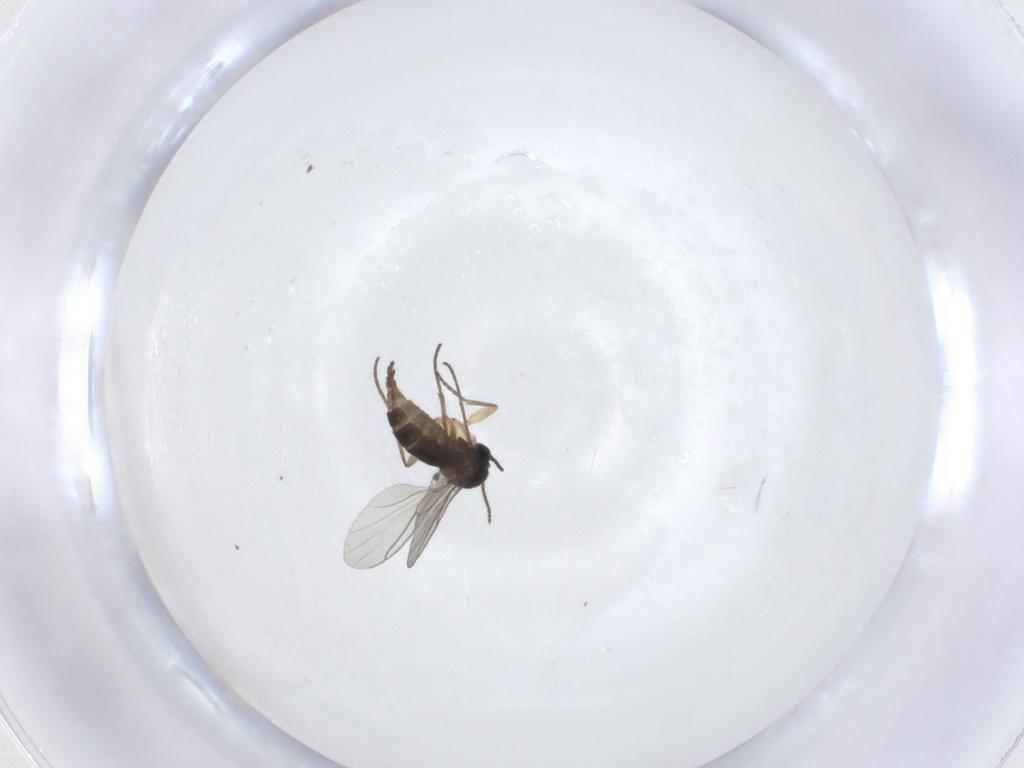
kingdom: Animalia
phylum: Arthropoda
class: Insecta
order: Diptera
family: Sciaridae
